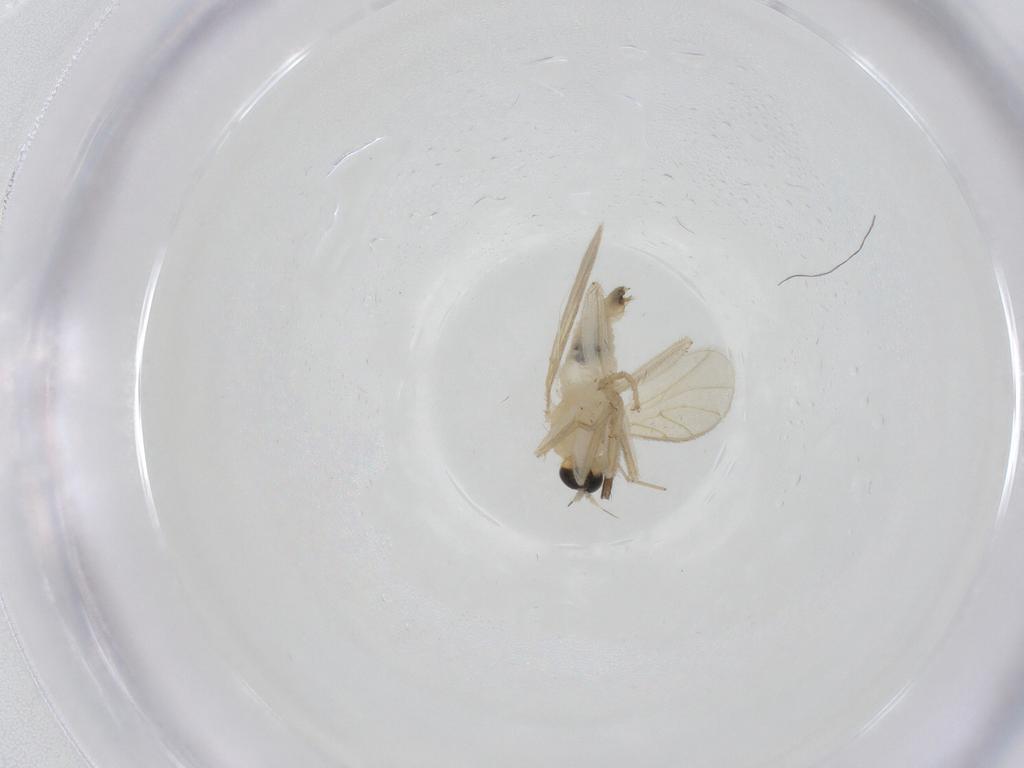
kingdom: Animalia
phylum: Arthropoda
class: Insecta
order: Diptera
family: Hybotidae
